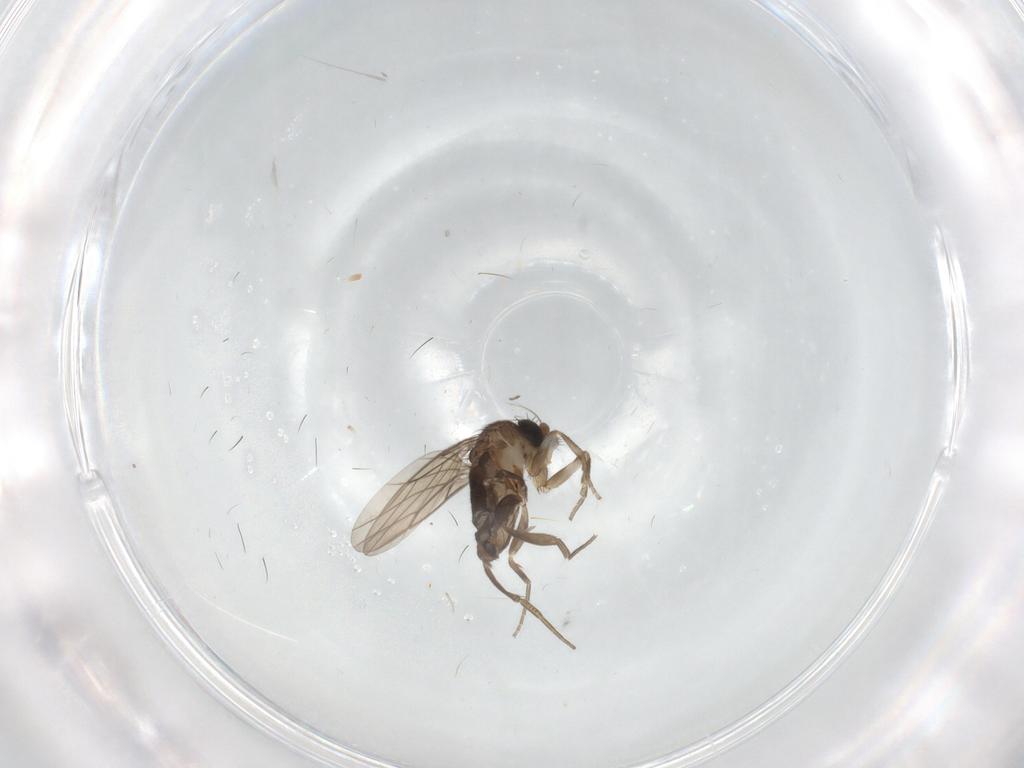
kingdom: Animalia
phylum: Arthropoda
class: Insecta
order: Diptera
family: Phoridae
